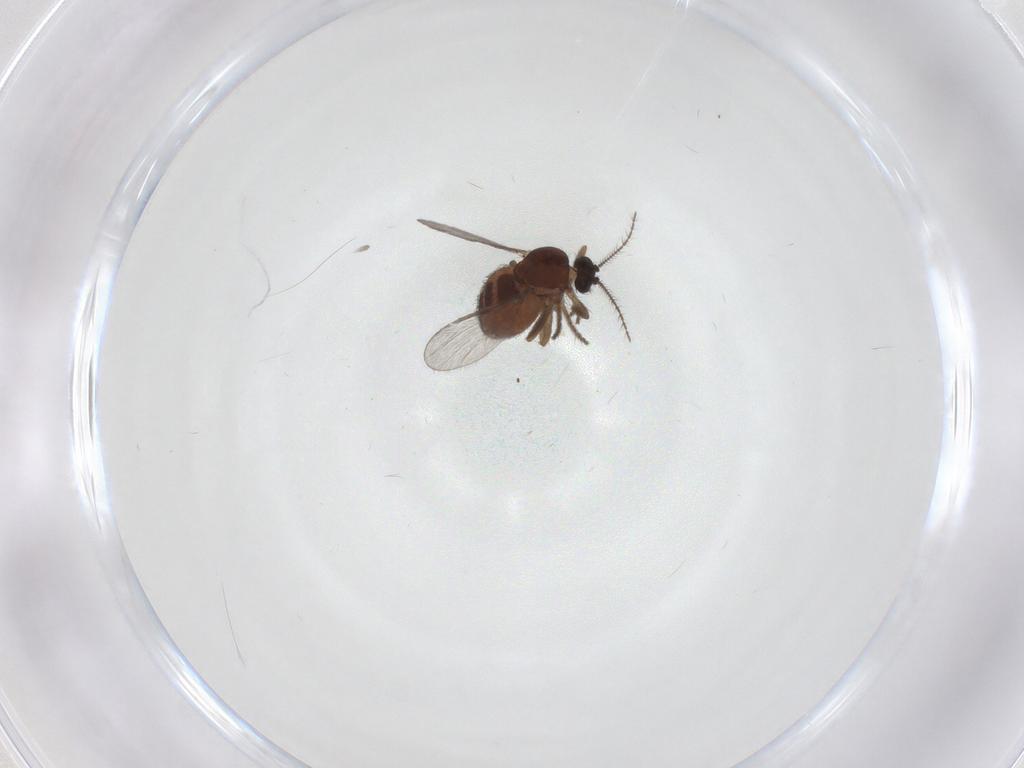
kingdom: Animalia
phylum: Arthropoda
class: Insecta
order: Diptera
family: Ceratopogonidae
